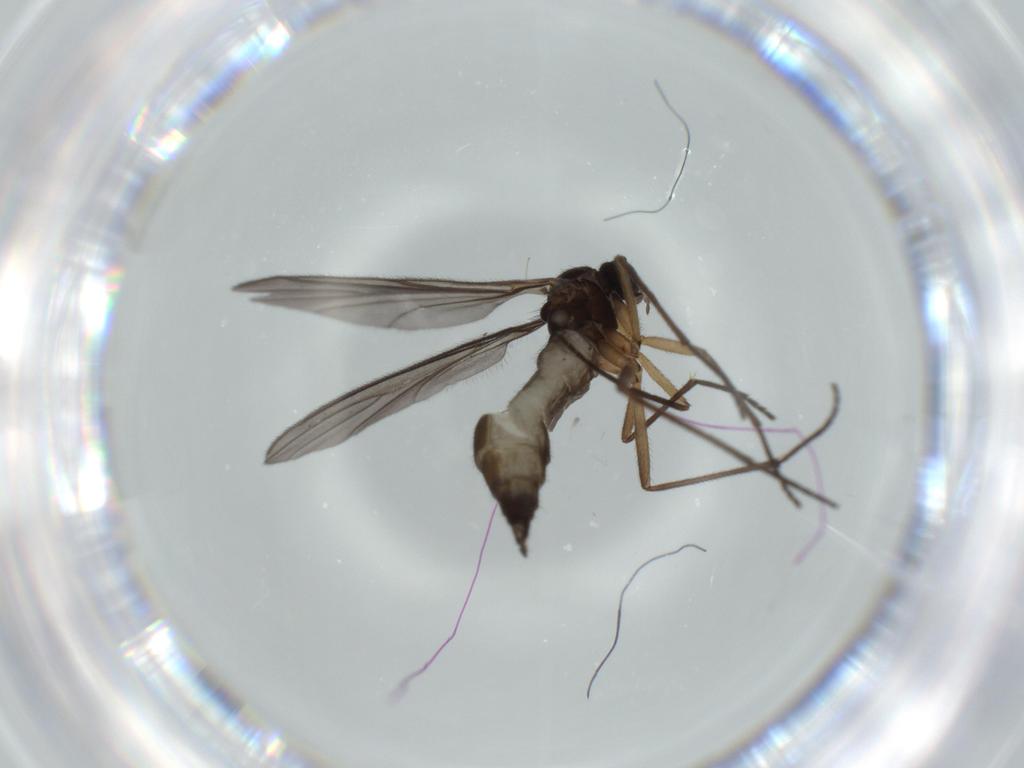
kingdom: Animalia
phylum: Arthropoda
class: Insecta
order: Diptera
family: Sciaridae
